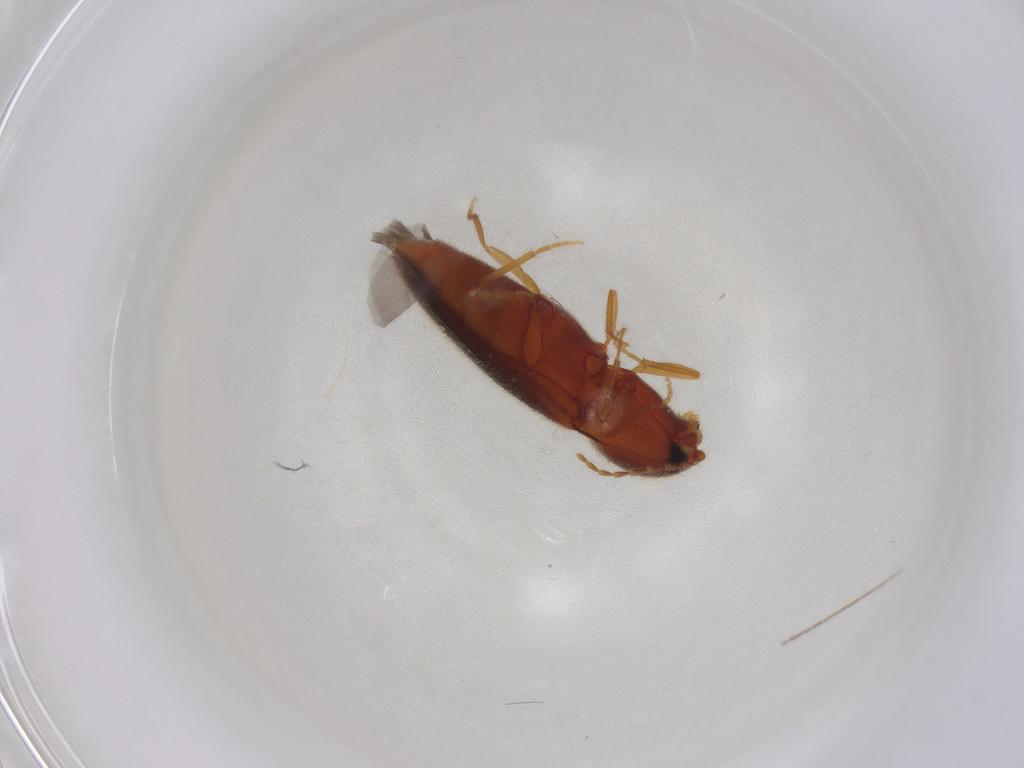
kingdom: Animalia
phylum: Arthropoda
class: Insecta
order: Coleoptera
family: Elateridae
